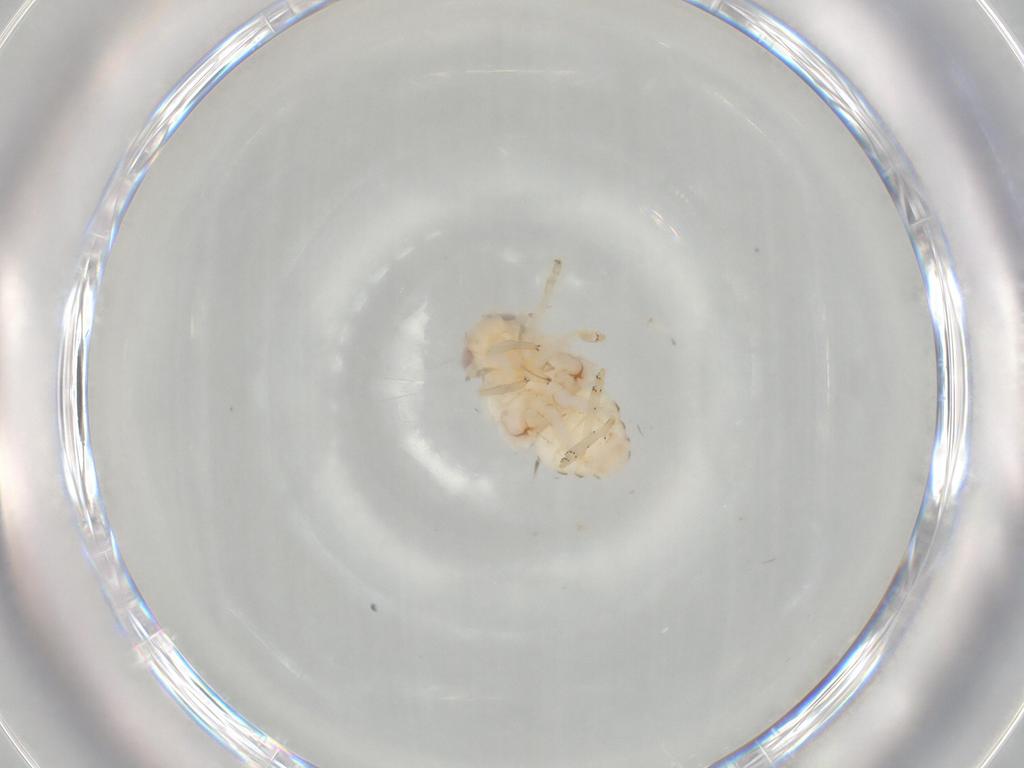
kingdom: Animalia
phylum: Arthropoda
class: Insecta
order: Hemiptera
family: Nogodinidae
